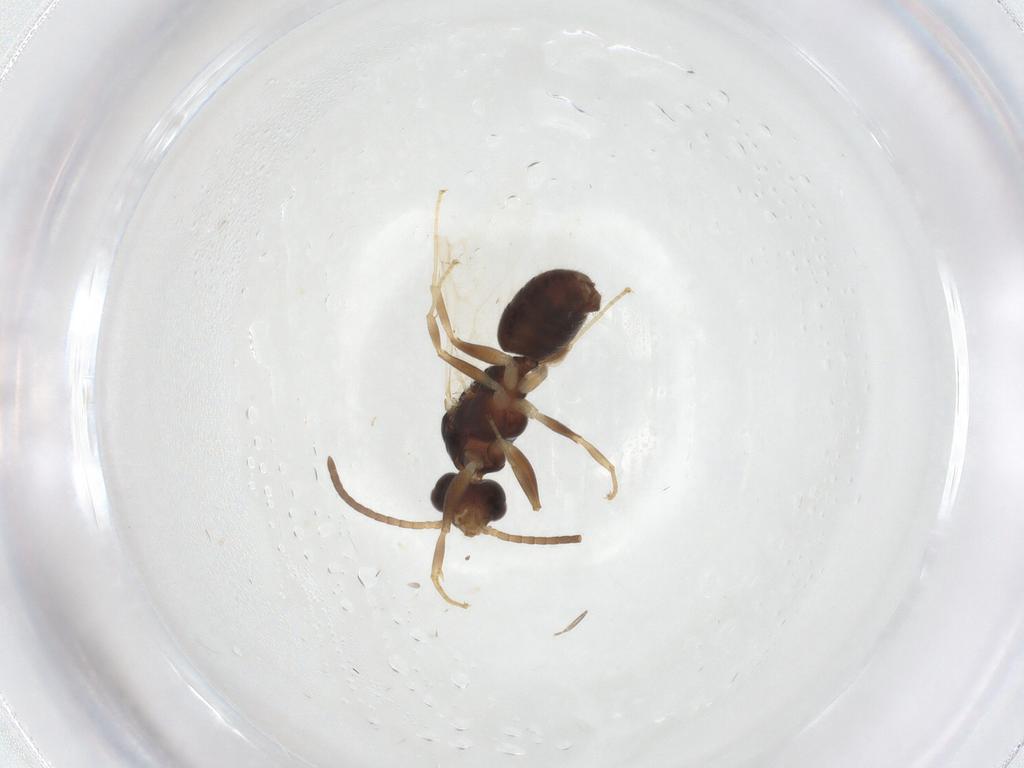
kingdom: Animalia
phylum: Arthropoda
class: Insecta
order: Hymenoptera
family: Formicidae
